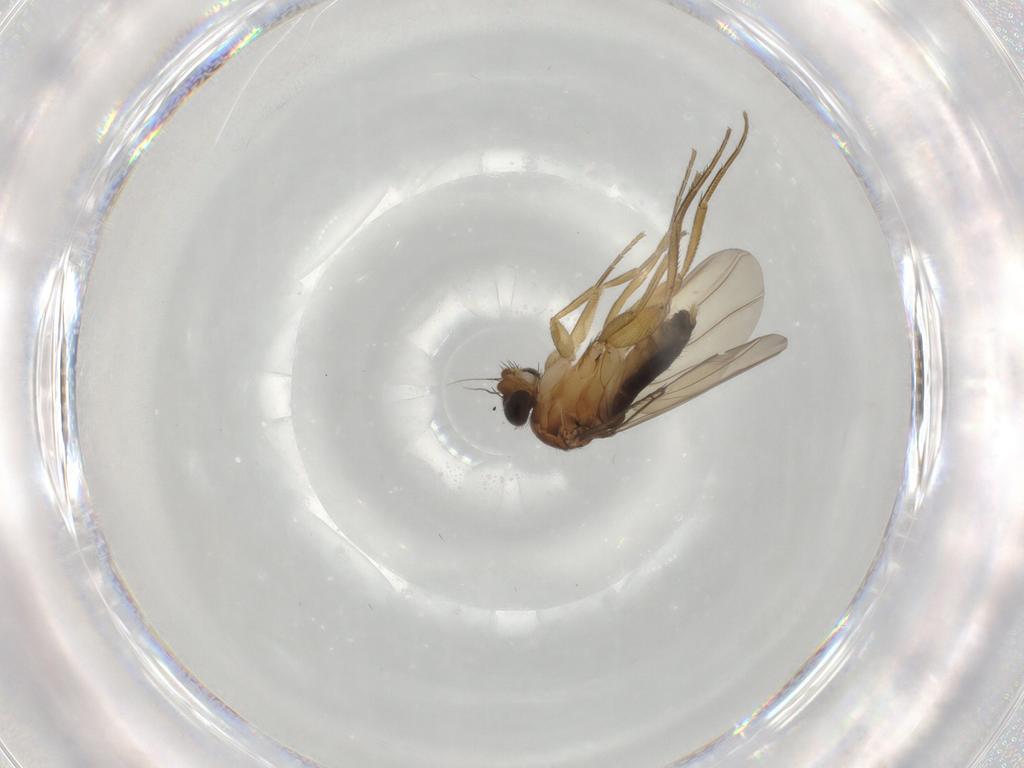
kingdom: Animalia
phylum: Arthropoda
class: Insecta
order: Diptera
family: Phoridae
